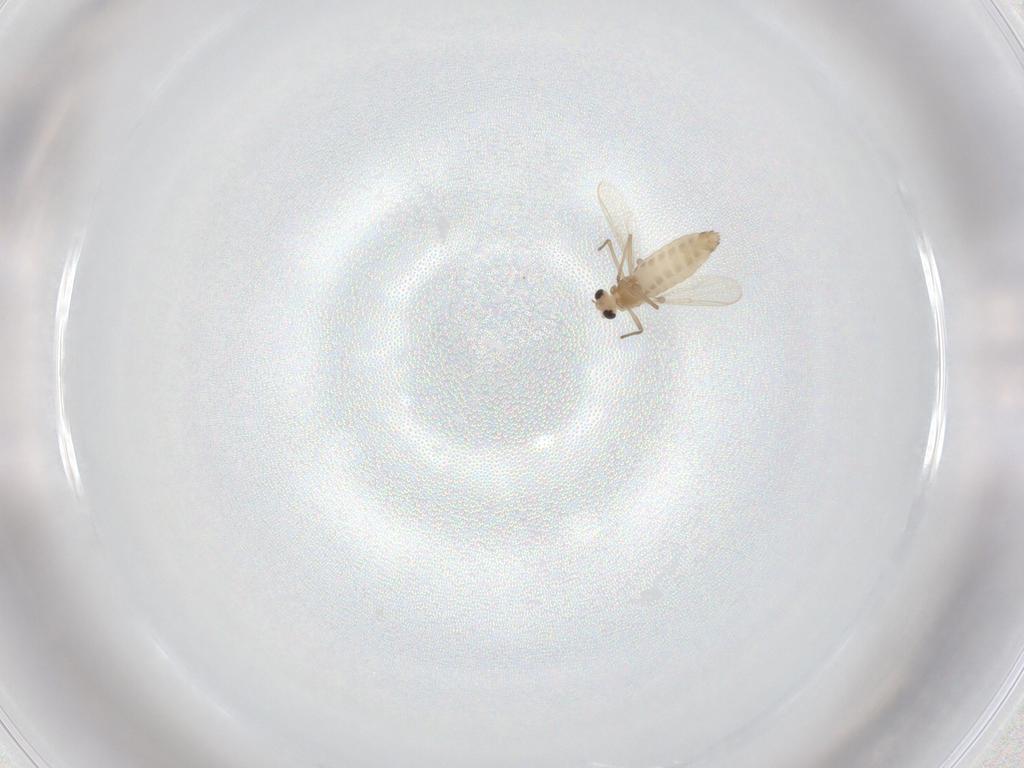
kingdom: Animalia
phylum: Arthropoda
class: Insecta
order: Diptera
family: Chironomidae
